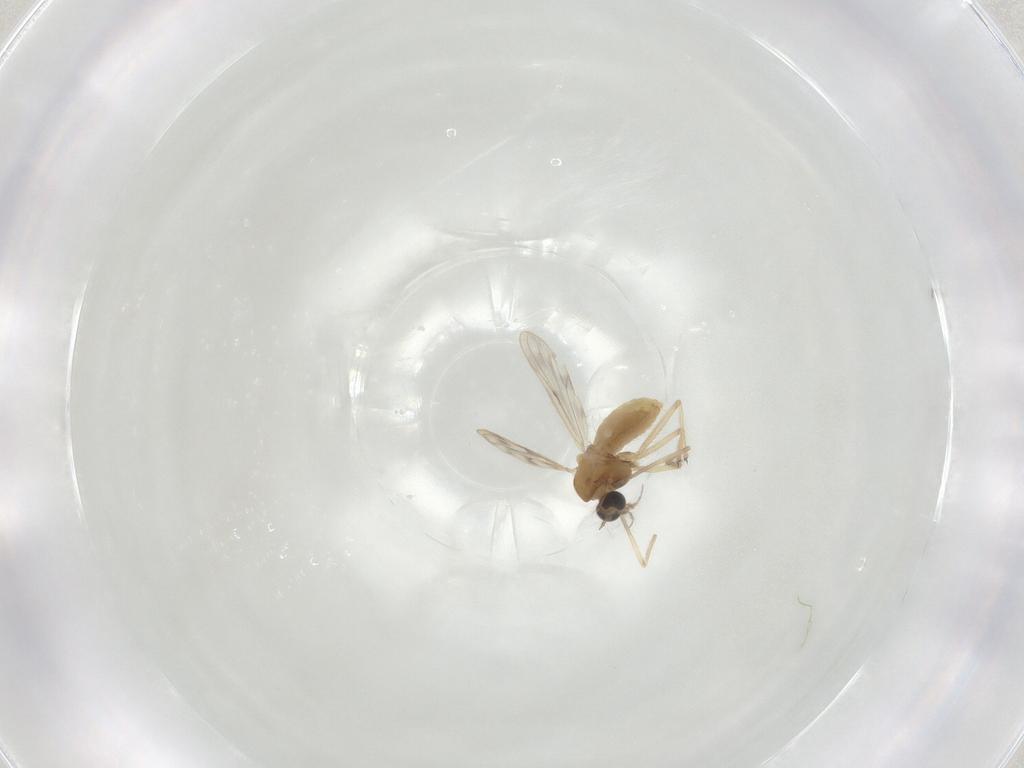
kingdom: Animalia
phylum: Arthropoda
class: Insecta
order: Diptera
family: Chironomidae
